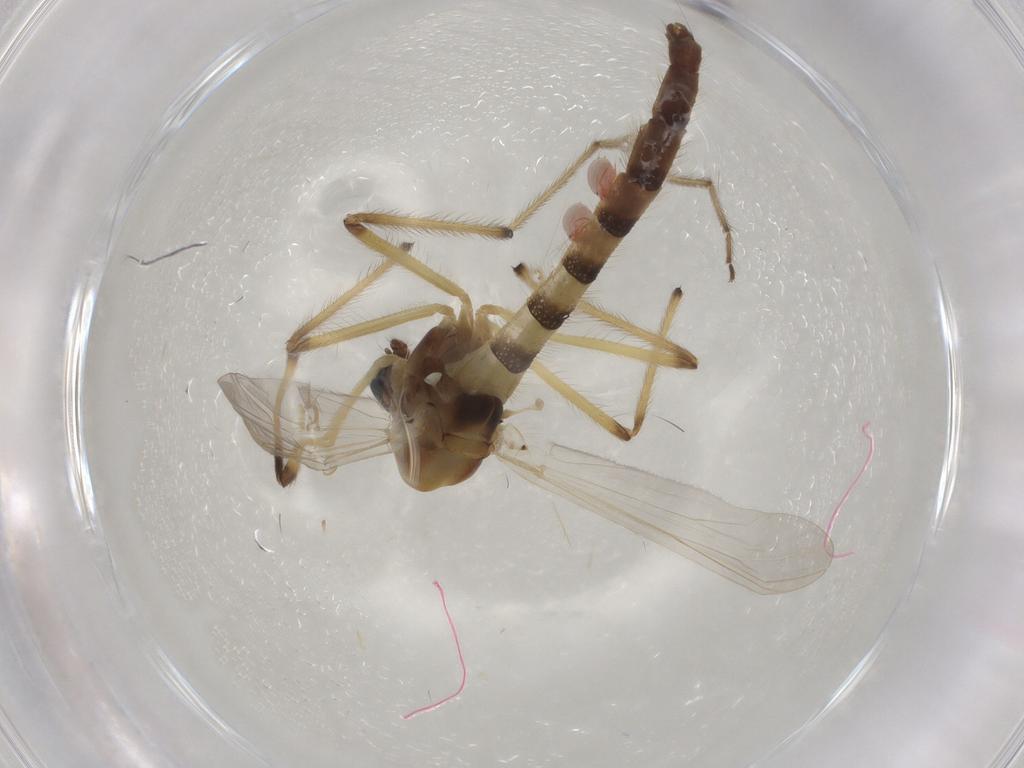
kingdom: Animalia
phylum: Arthropoda
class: Insecta
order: Diptera
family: Chironomidae
